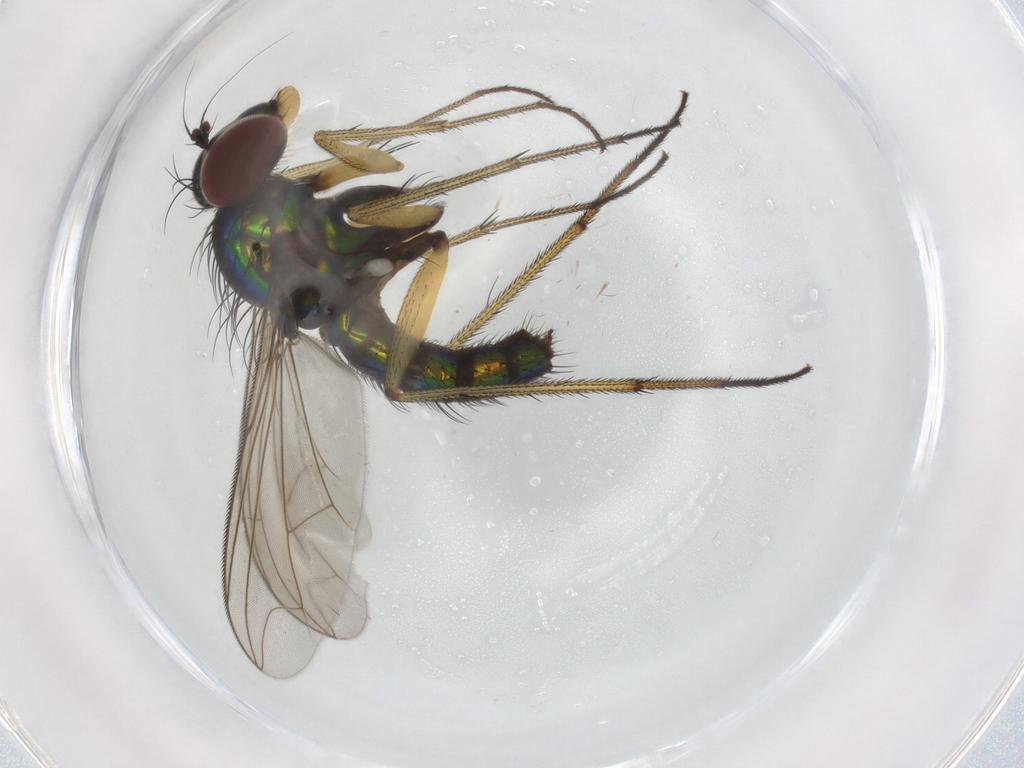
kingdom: Animalia
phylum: Arthropoda
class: Insecta
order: Diptera
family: Dolichopodidae
